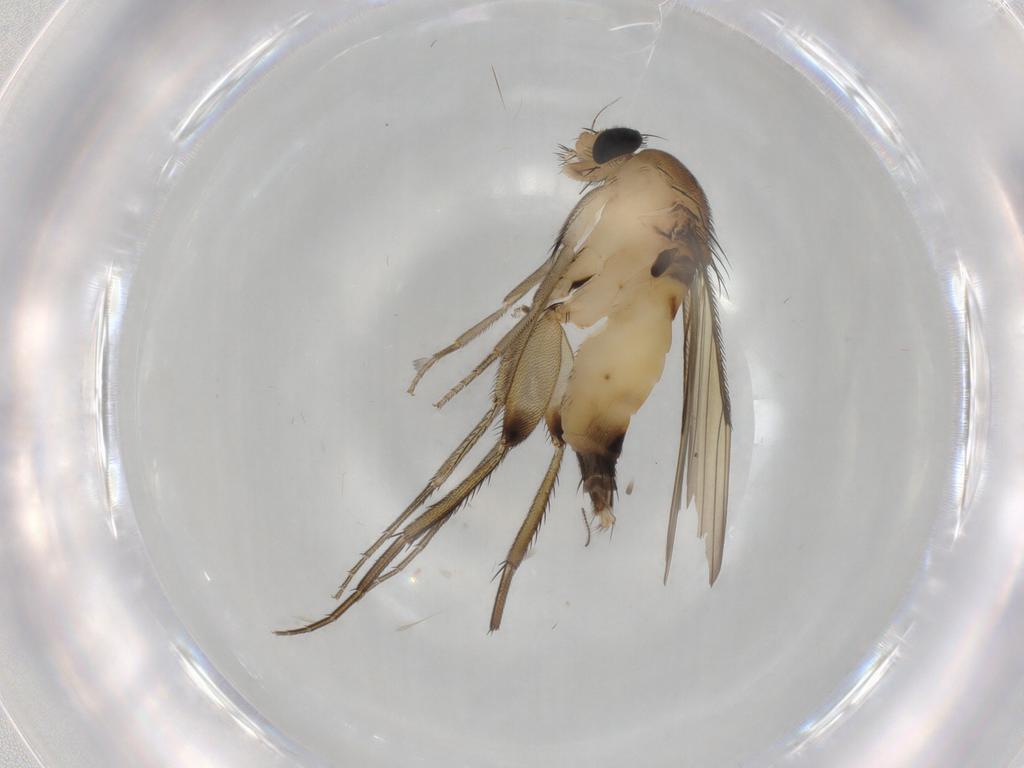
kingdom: Animalia
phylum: Arthropoda
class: Insecta
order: Diptera
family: Phoridae
